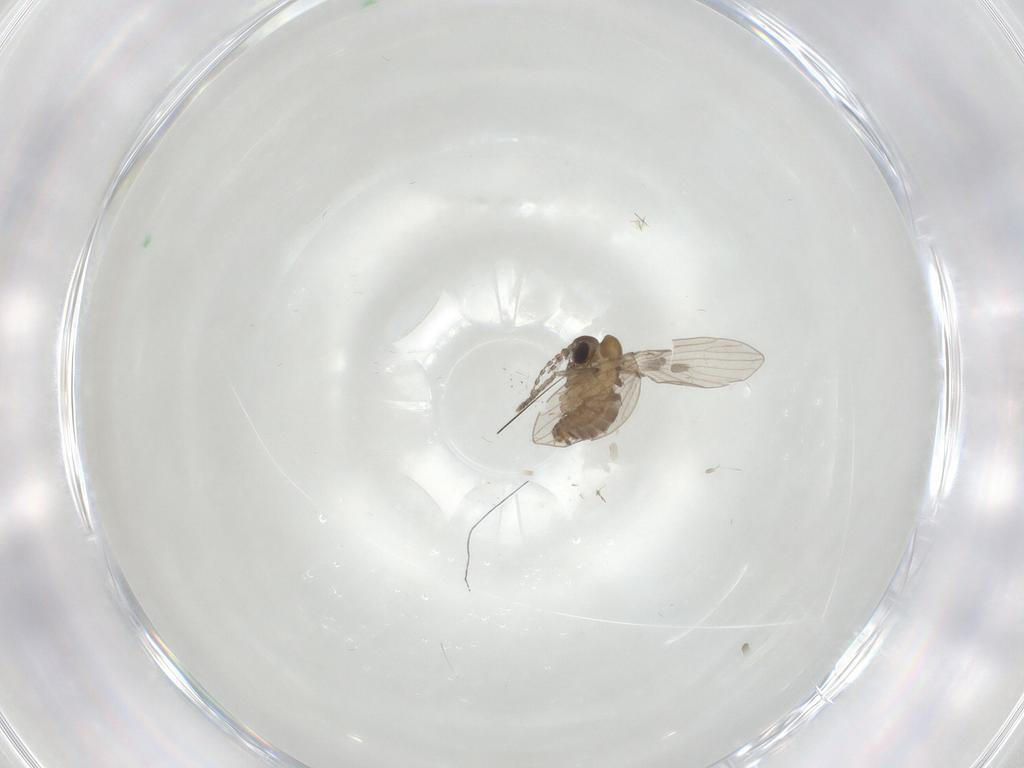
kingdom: Animalia
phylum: Arthropoda
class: Insecta
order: Diptera
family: Psychodidae
